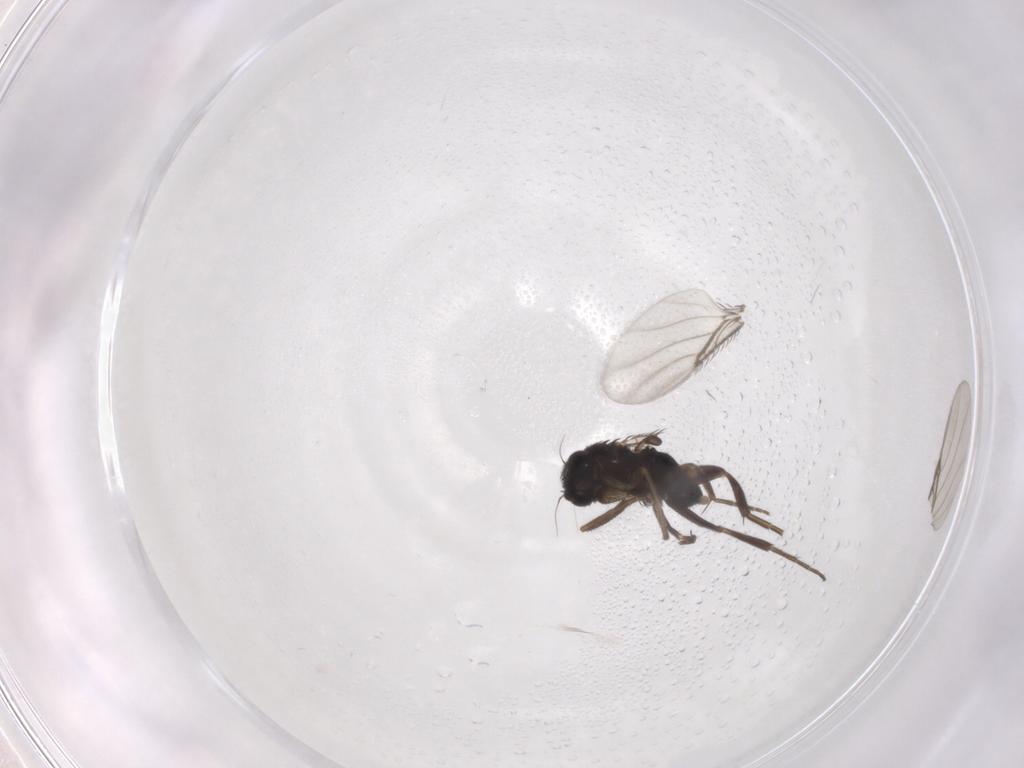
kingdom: Animalia
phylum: Arthropoda
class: Insecta
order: Diptera
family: Phoridae
